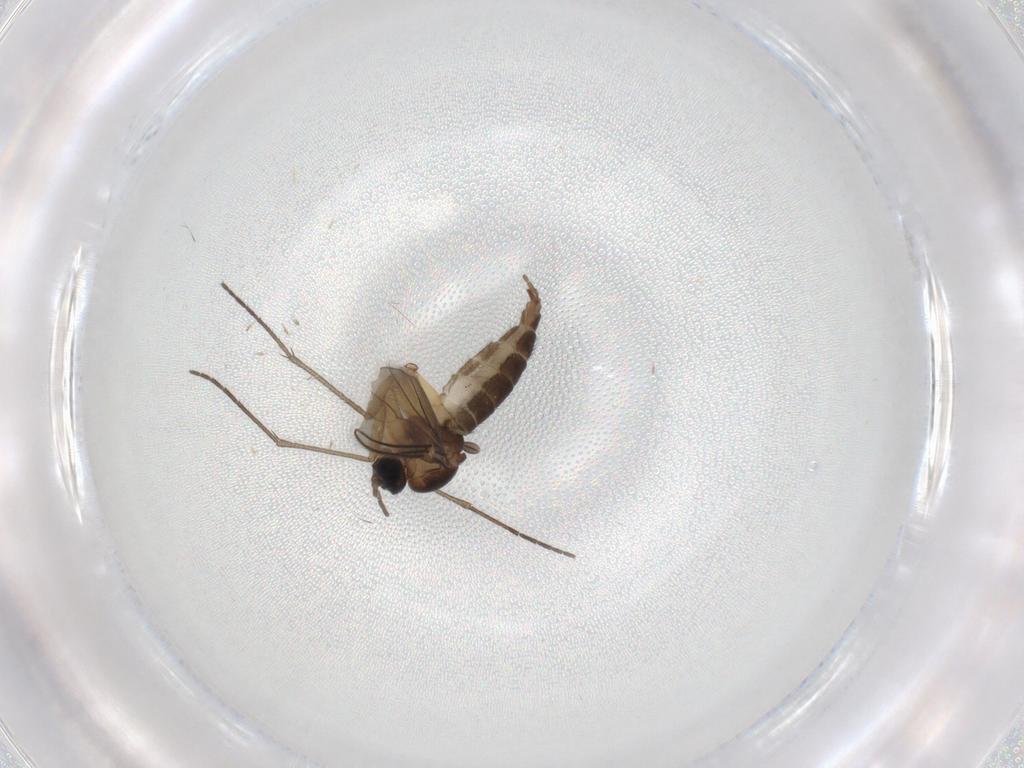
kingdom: Animalia
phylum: Arthropoda
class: Insecta
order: Diptera
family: Sciaridae
